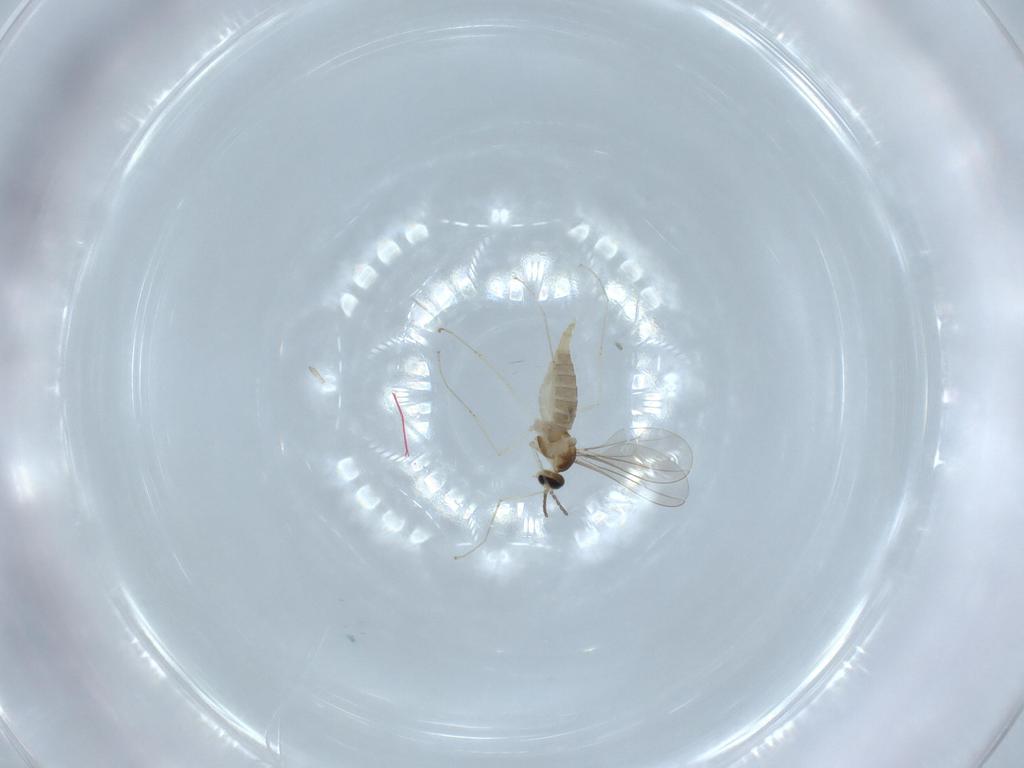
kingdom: Animalia
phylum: Arthropoda
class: Insecta
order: Diptera
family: Cecidomyiidae
